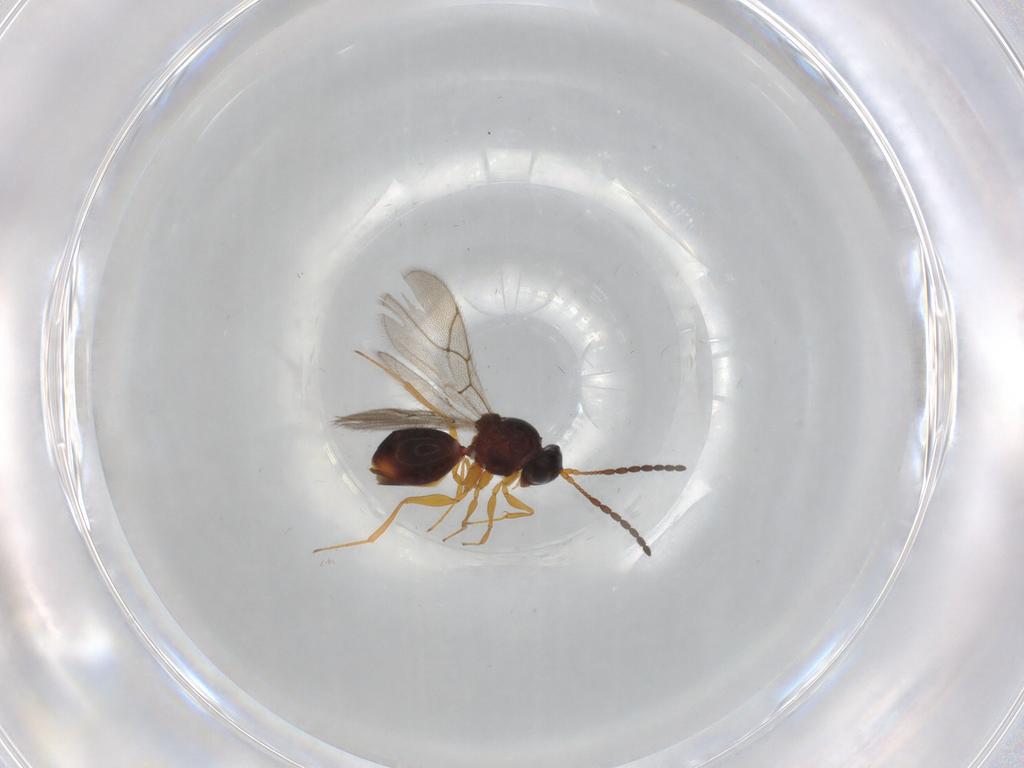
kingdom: Animalia
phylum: Arthropoda
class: Insecta
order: Hymenoptera
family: Figitidae
